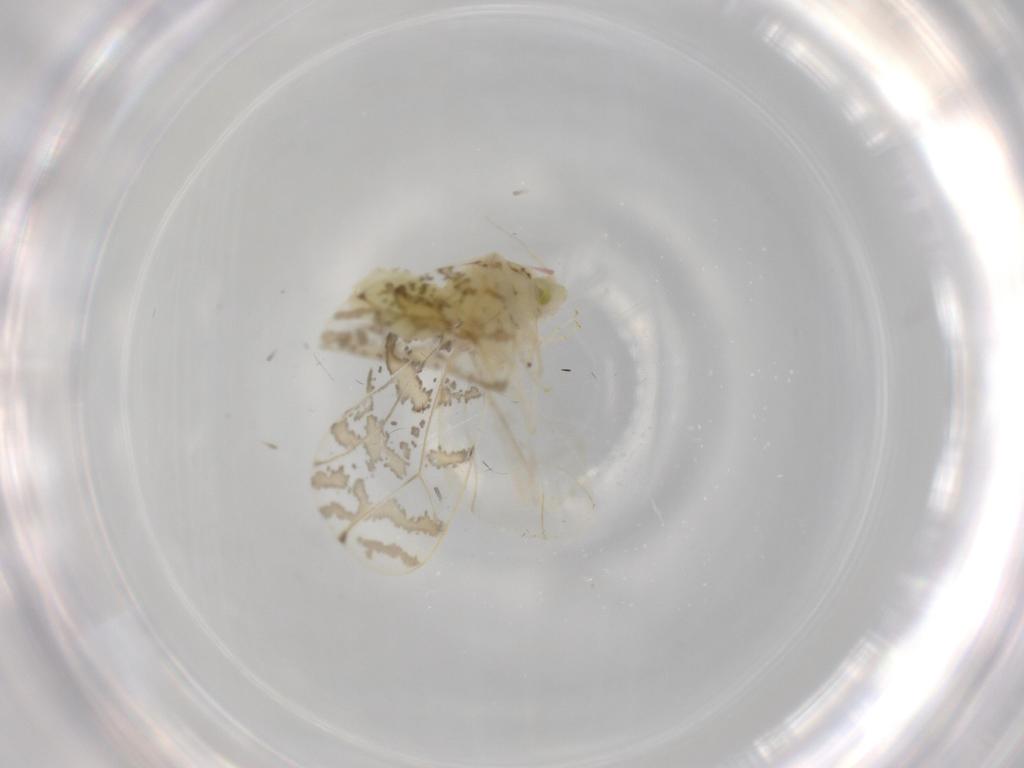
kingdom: Animalia
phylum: Arthropoda
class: Insecta
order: Hemiptera
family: Aleyrodidae
